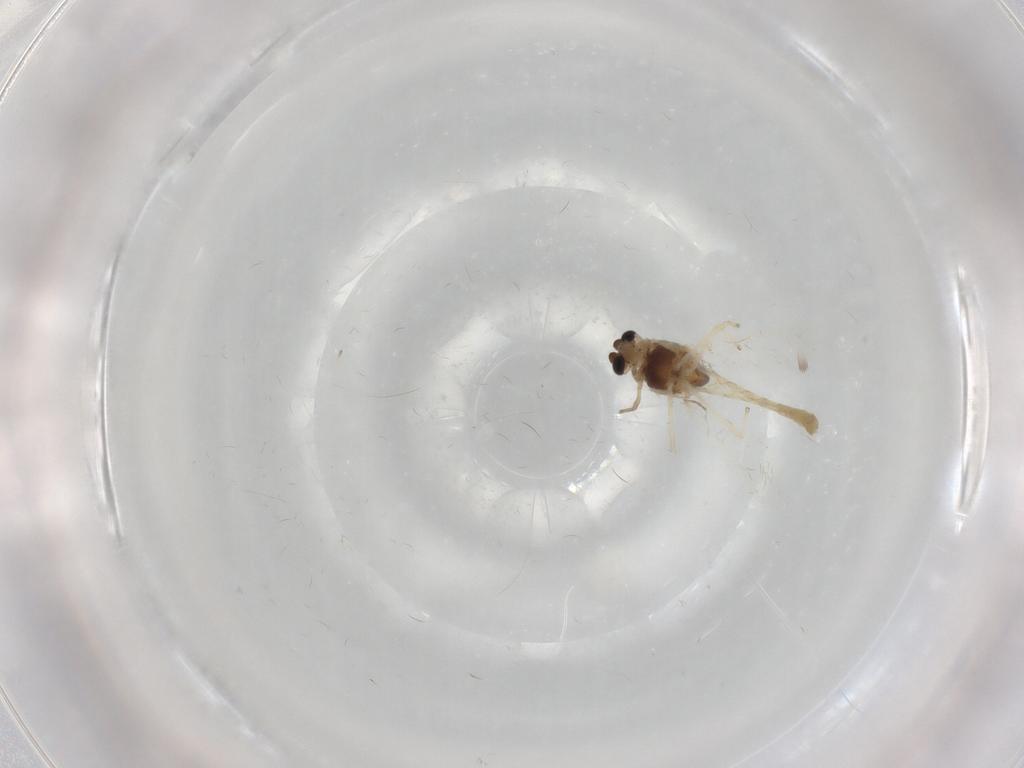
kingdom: Animalia
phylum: Arthropoda
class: Insecta
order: Diptera
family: Chironomidae
